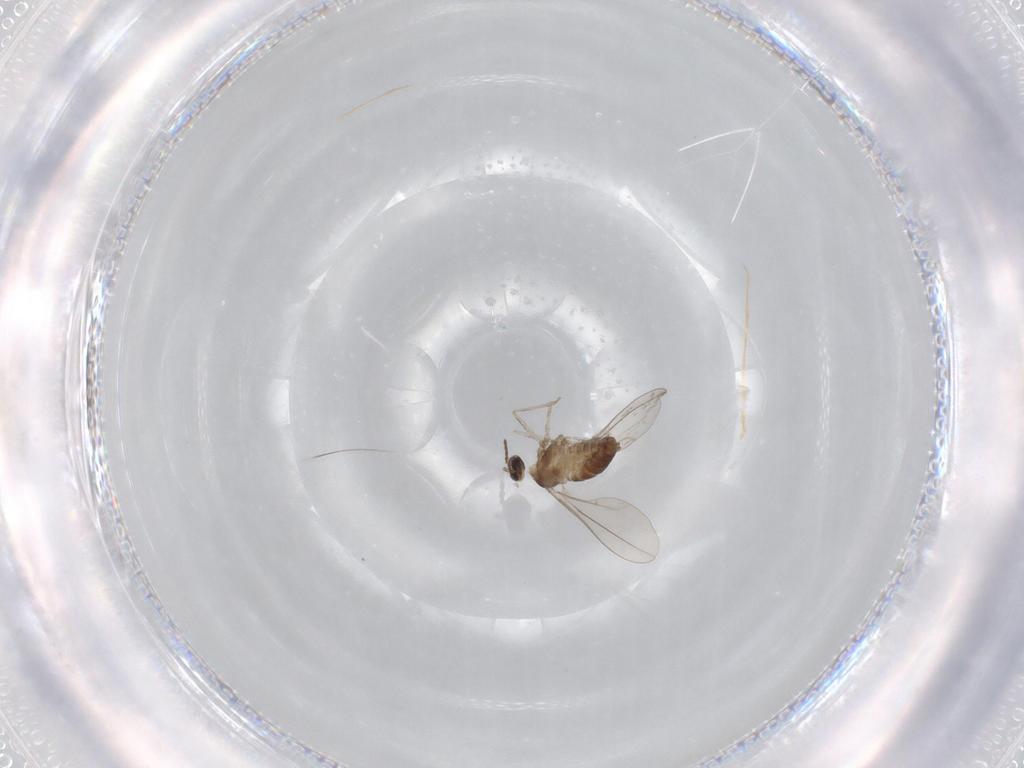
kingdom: Animalia
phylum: Arthropoda
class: Insecta
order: Diptera
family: Cecidomyiidae
